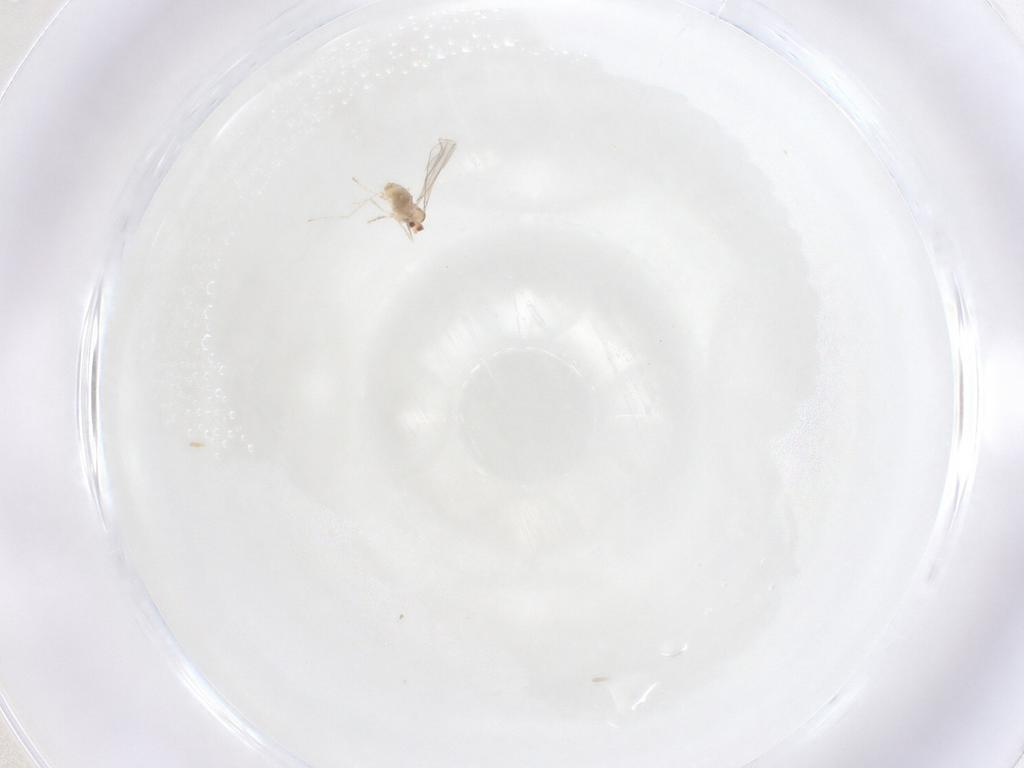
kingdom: Animalia
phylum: Arthropoda
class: Insecta
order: Diptera
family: Cecidomyiidae
